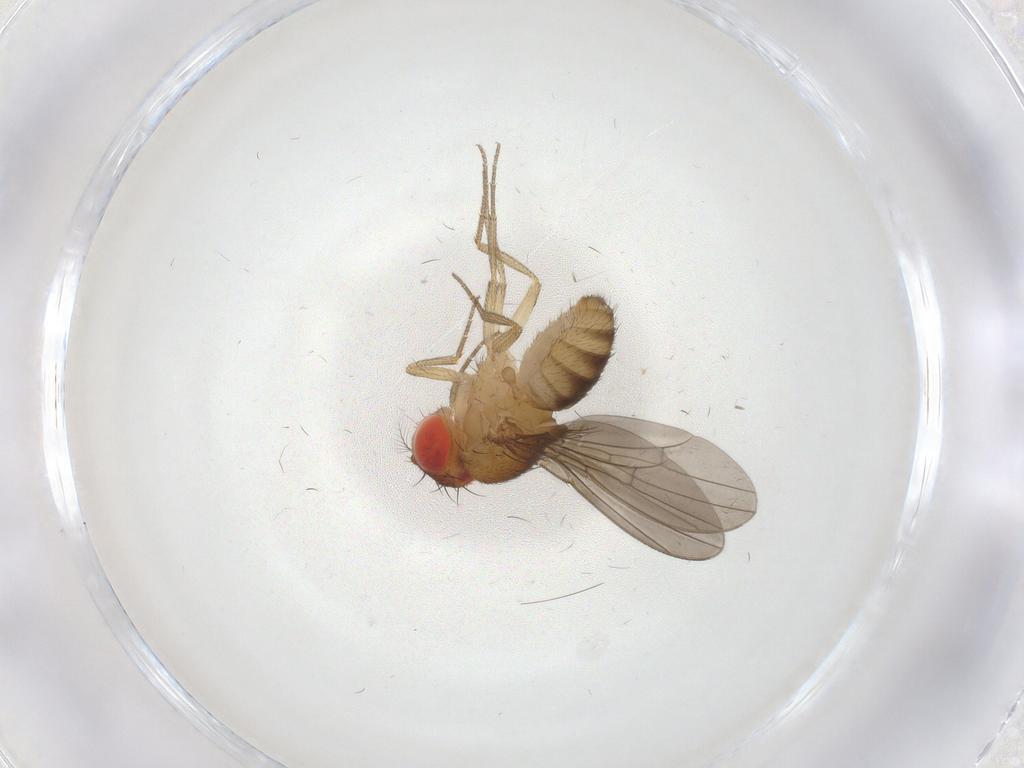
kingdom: Animalia
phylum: Arthropoda
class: Insecta
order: Diptera
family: Drosophilidae
